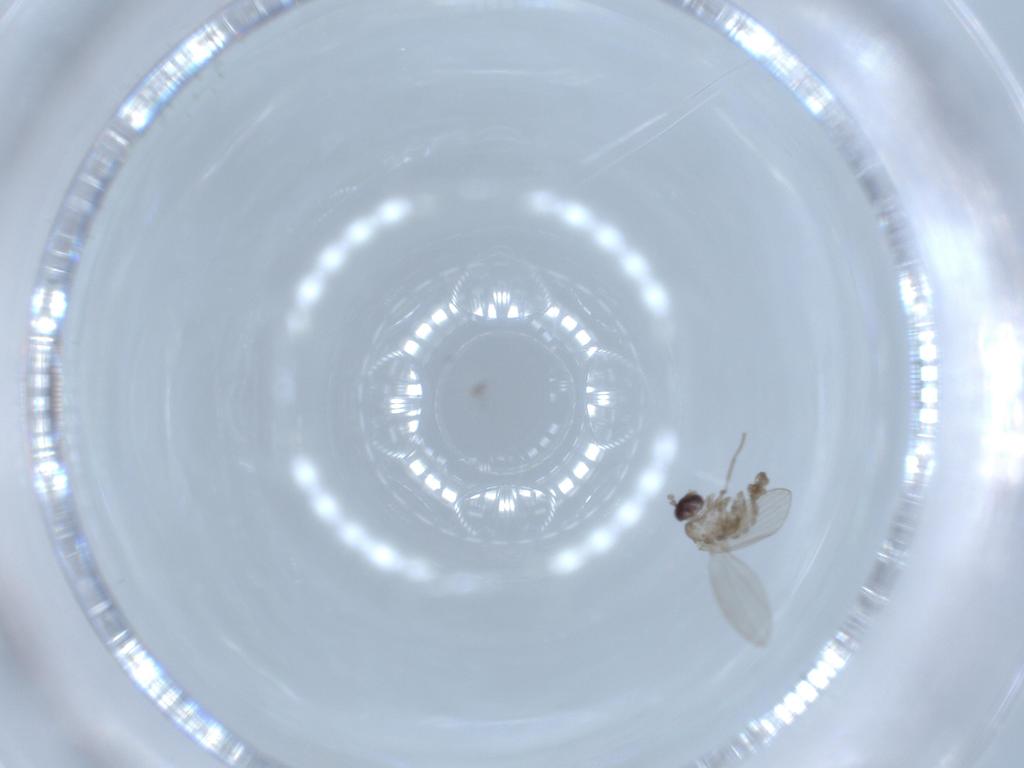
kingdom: Animalia
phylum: Arthropoda
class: Insecta
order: Diptera
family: Psychodidae
